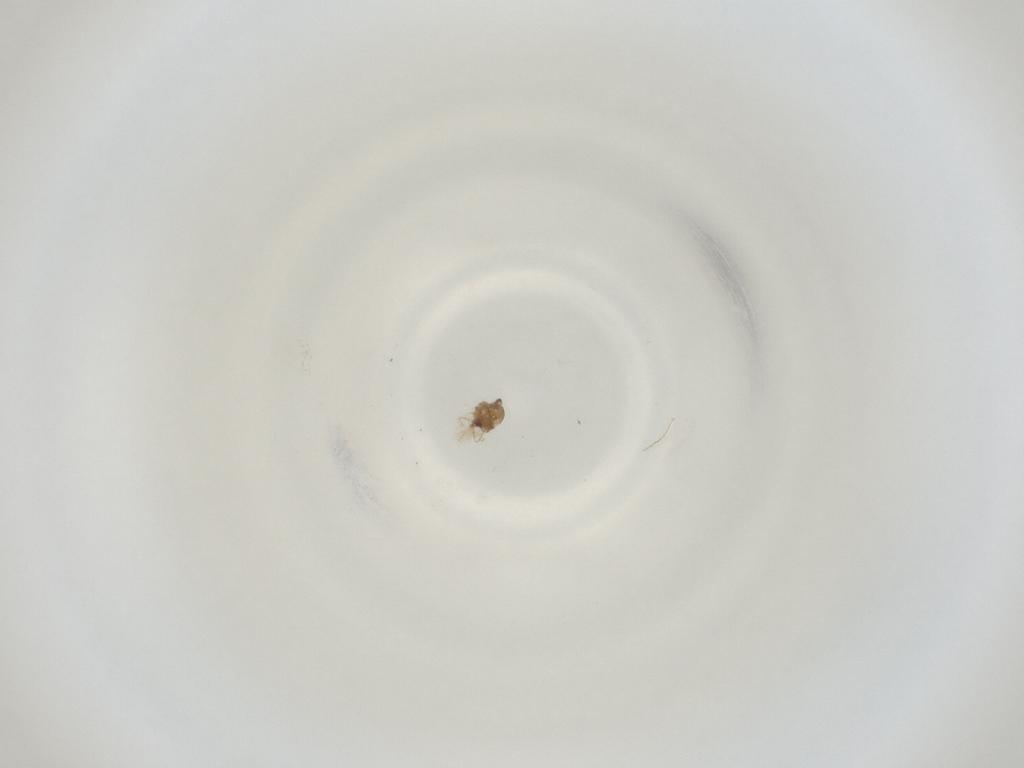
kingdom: Animalia
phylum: Arthropoda
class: Insecta
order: Diptera
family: Cecidomyiidae
